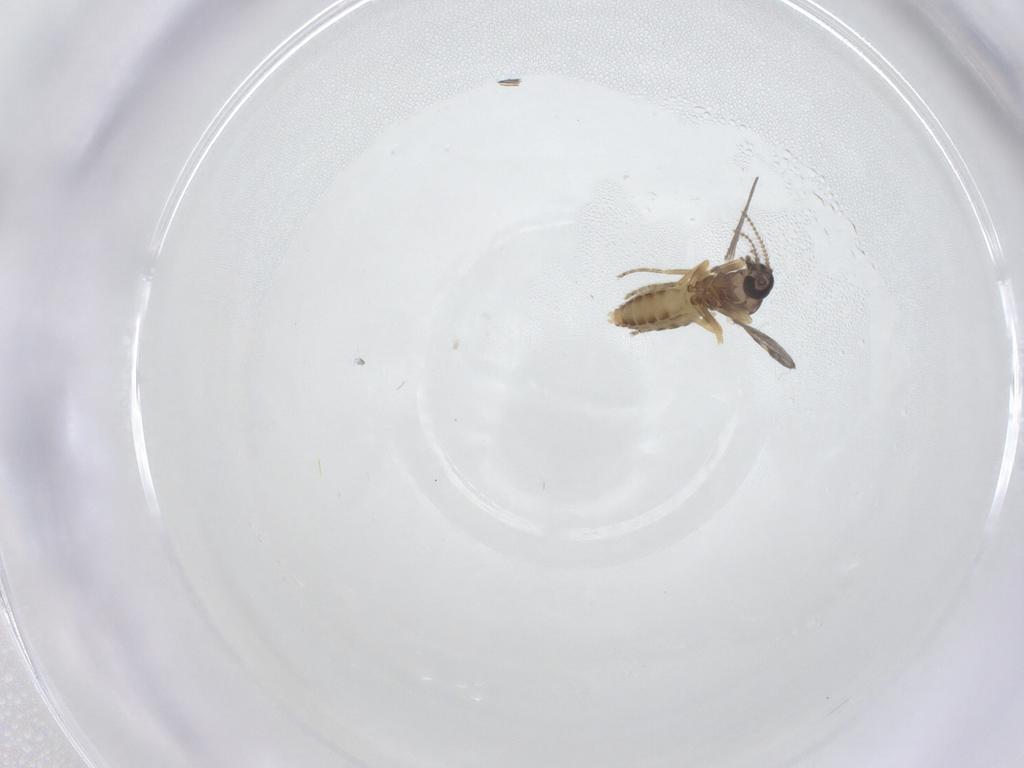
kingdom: Animalia
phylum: Arthropoda
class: Insecta
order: Diptera
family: Ceratopogonidae
